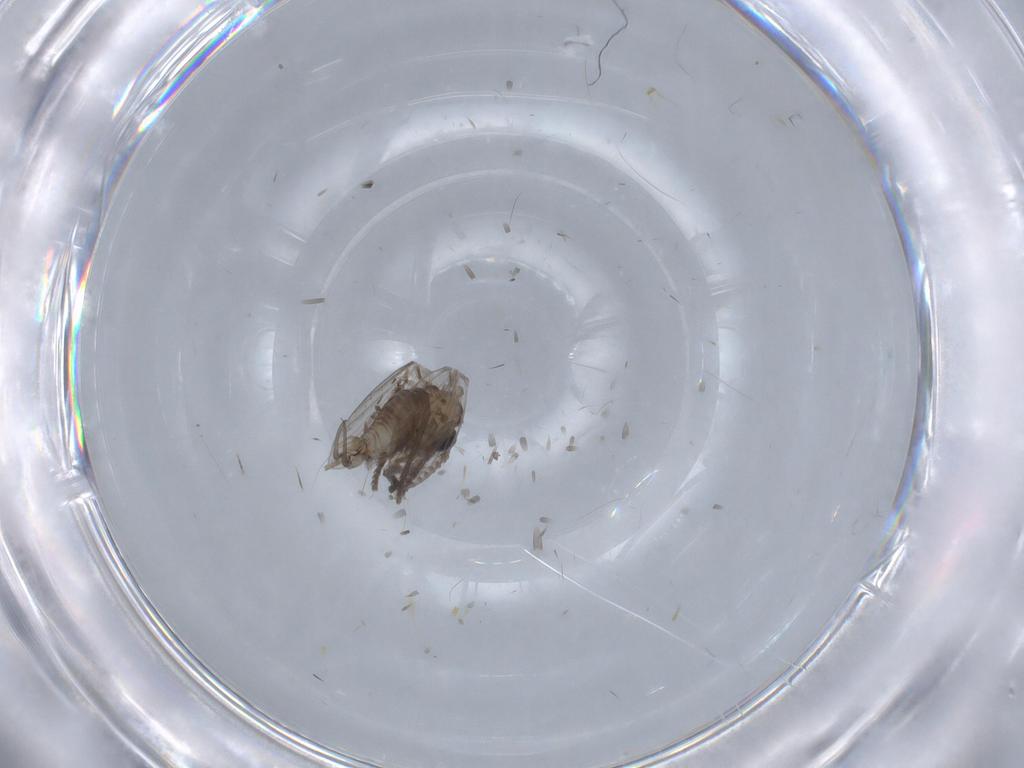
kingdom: Animalia
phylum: Arthropoda
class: Insecta
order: Diptera
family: Psychodidae
